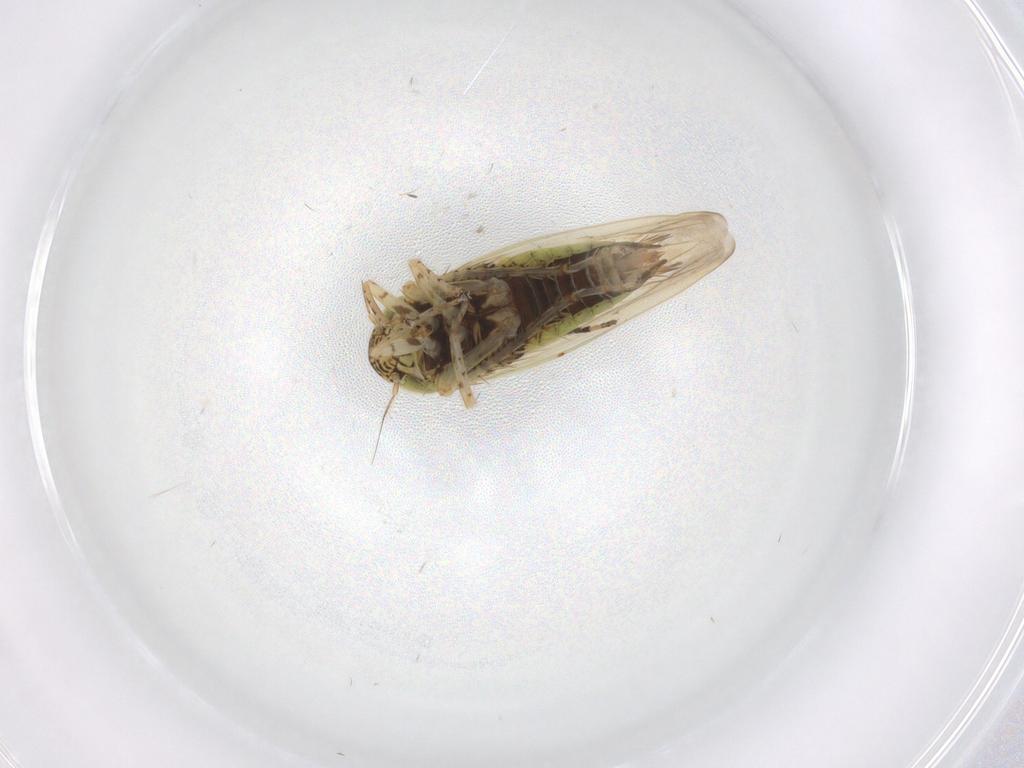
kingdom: Animalia
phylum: Arthropoda
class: Insecta
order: Hemiptera
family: Cicadellidae
